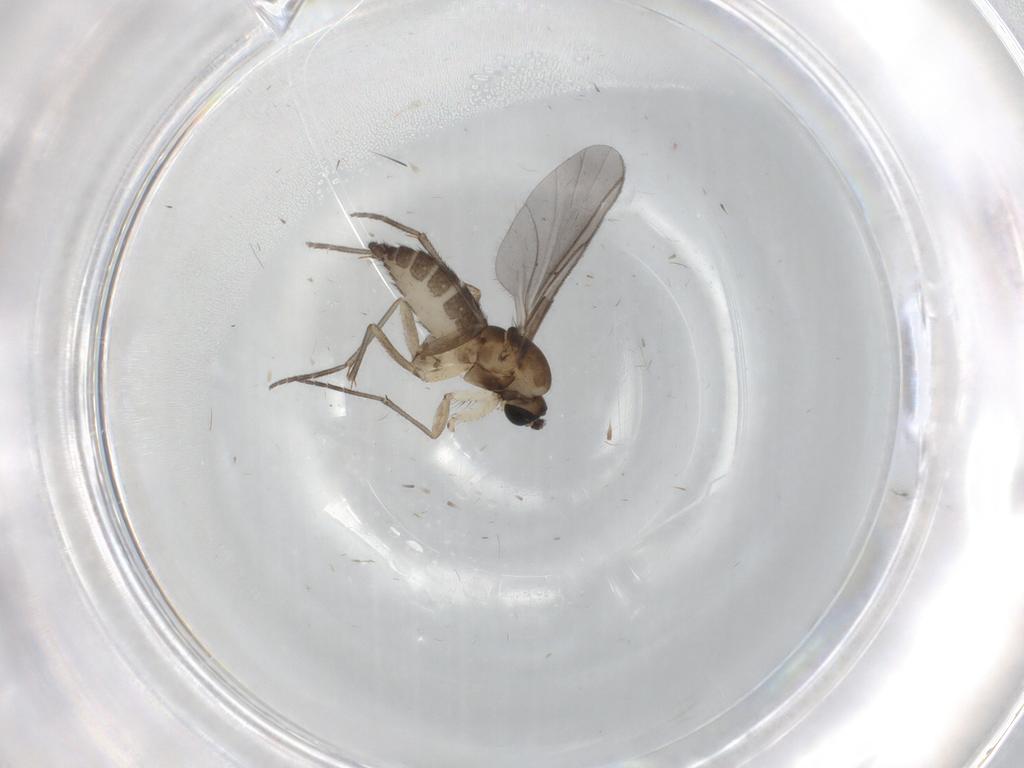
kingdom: Animalia
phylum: Arthropoda
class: Insecta
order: Diptera
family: Sciaridae
